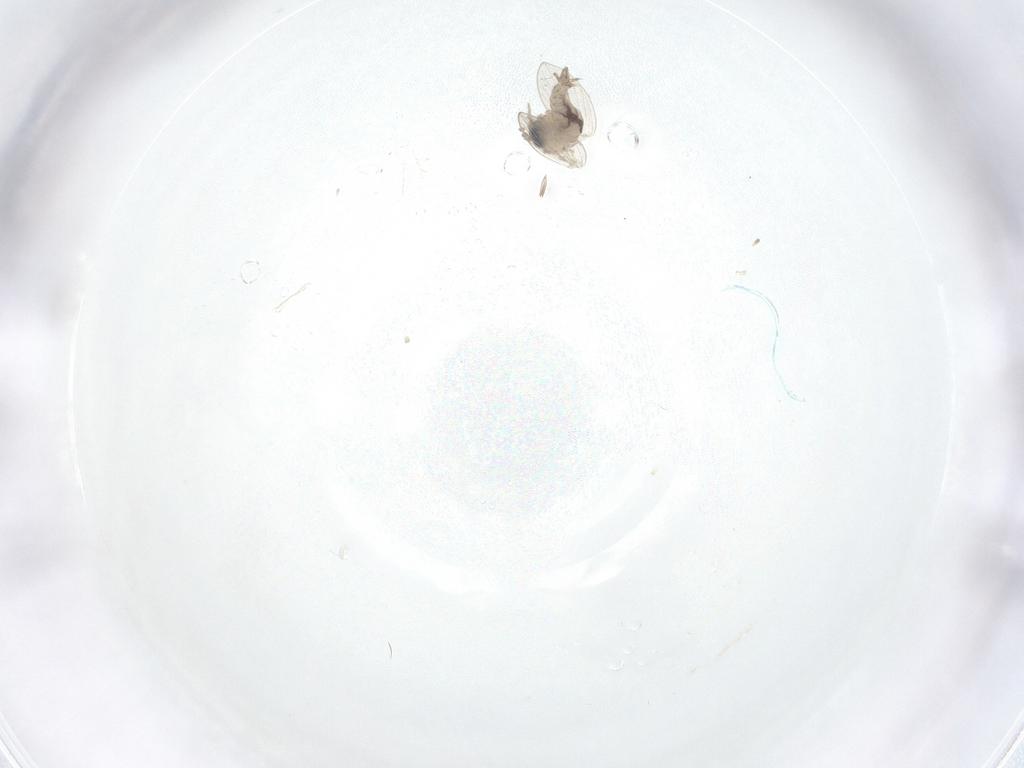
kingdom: Animalia
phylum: Arthropoda
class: Insecta
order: Diptera
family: Psychodidae
